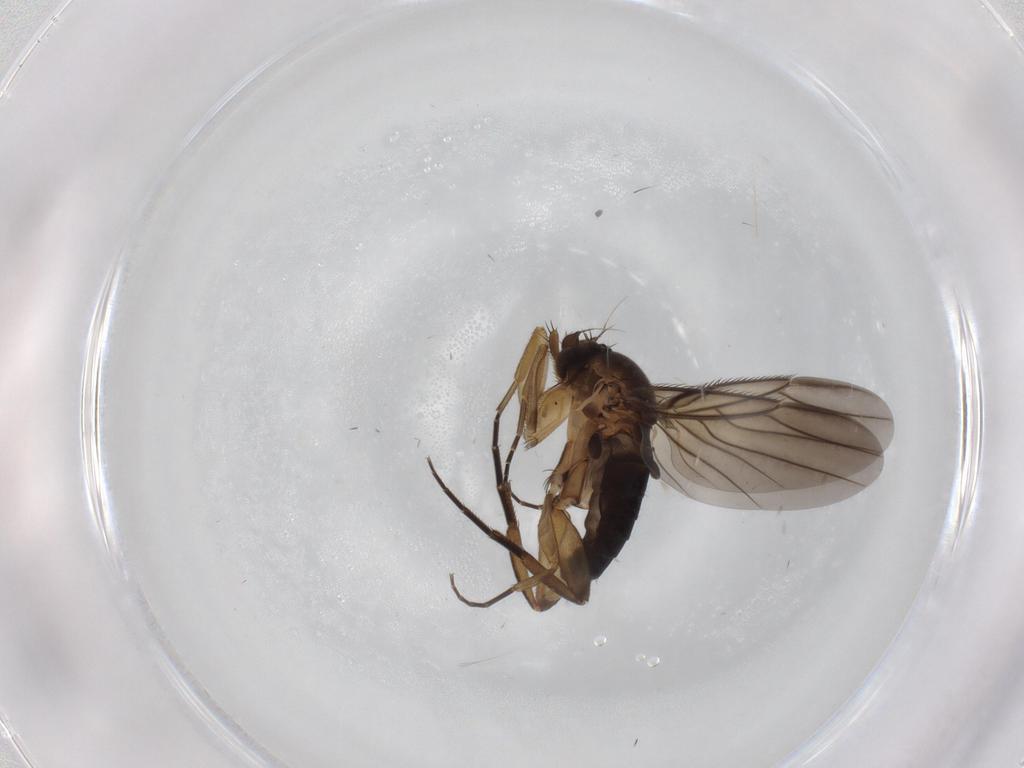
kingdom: Animalia
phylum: Arthropoda
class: Insecta
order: Diptera
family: Phoridae
